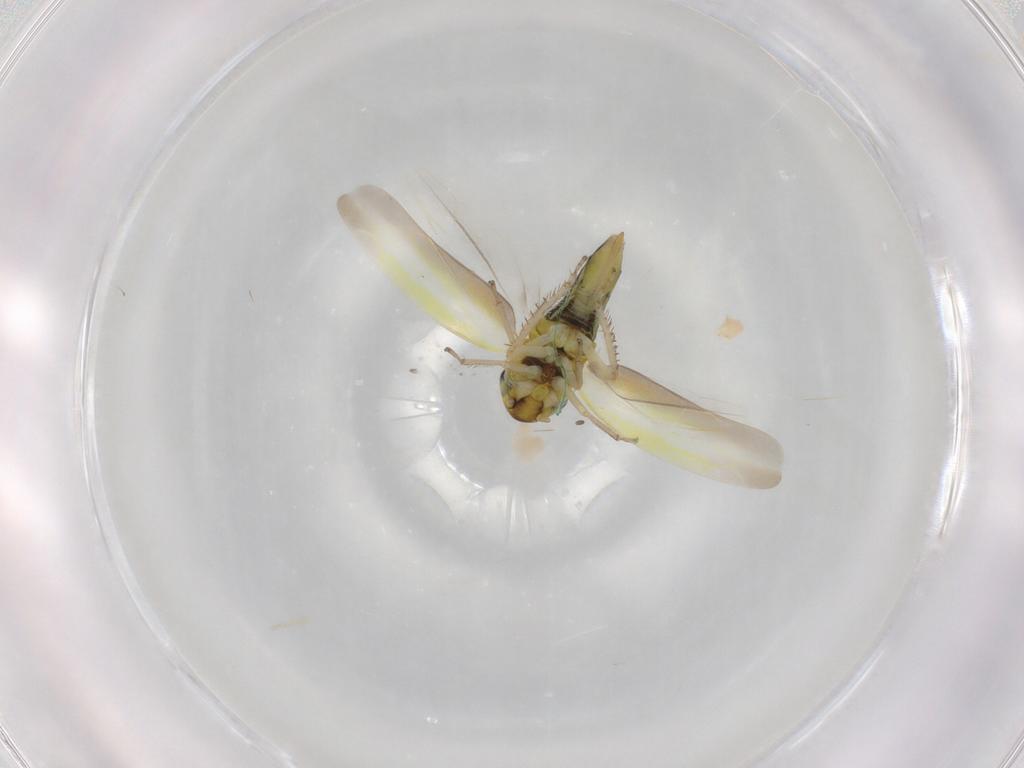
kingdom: Animalia
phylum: Arthropoda
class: Insecta
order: Hemiptera
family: Cicadellidae
